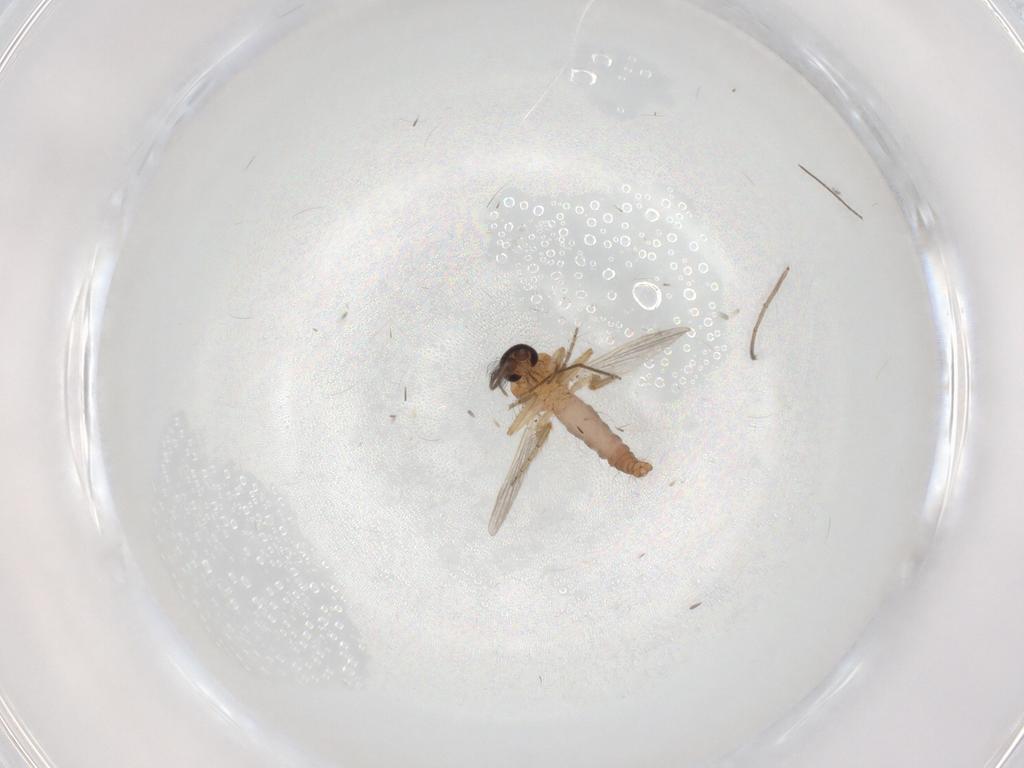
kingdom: Animalia
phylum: Arthropoda
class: Insecta
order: Diptera
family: Ceratopogonidae
